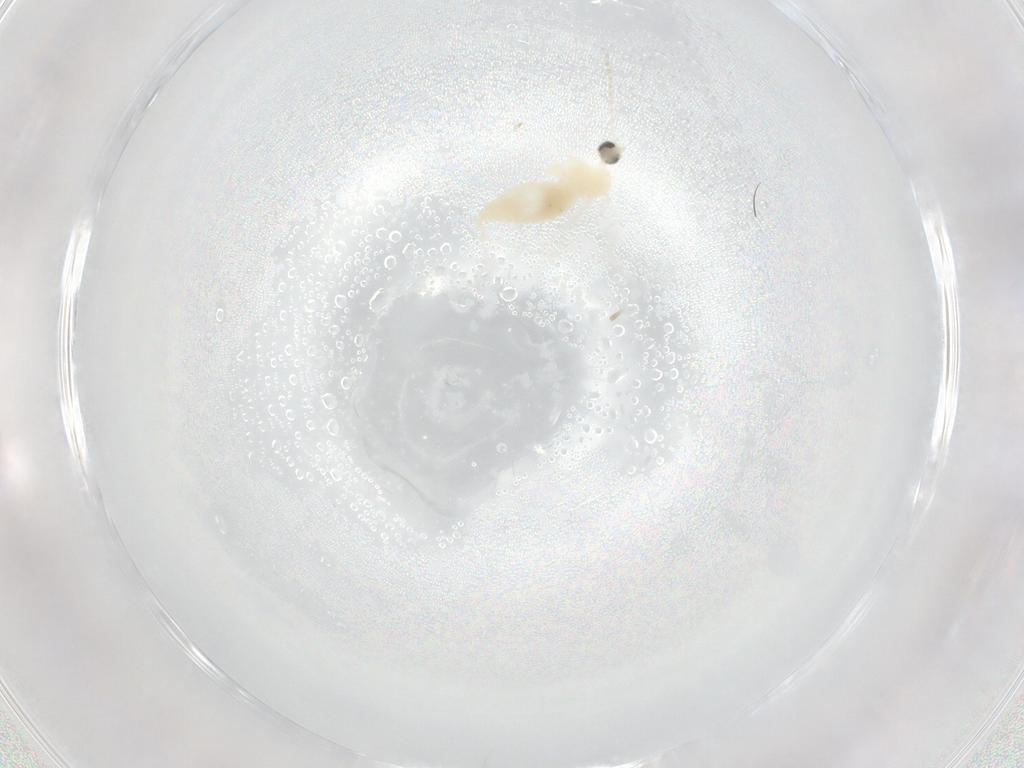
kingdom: Animalia
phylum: Arthropoda
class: Insecta
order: Diptera
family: Cecidomyiidae
